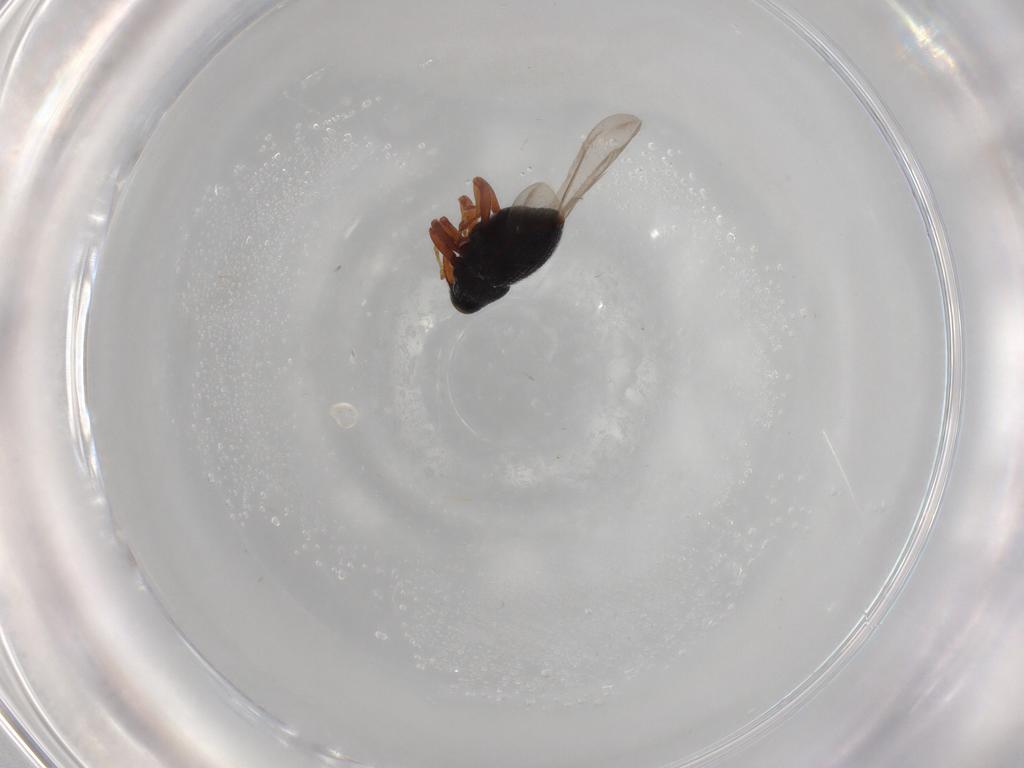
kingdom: Animalia
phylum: Arthropoda
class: Insecta
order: Coleoptera
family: Curculionidae
